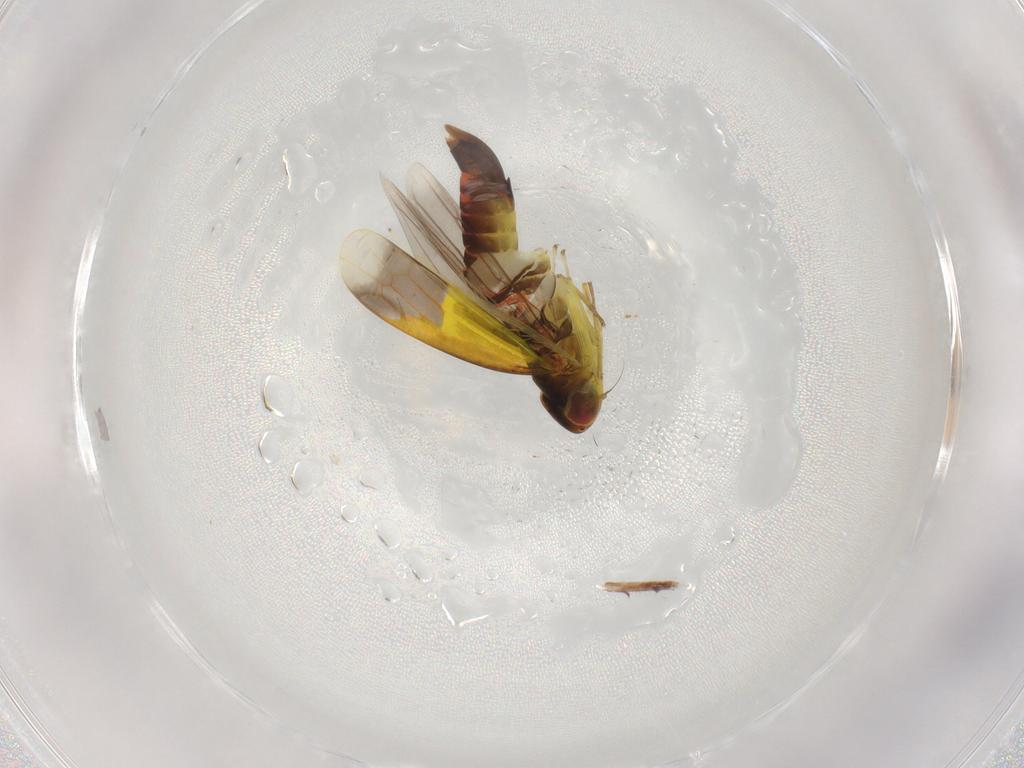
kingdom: Animalia
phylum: Arthropoda
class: Insecta
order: Hemiptera
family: Cicadellidae
